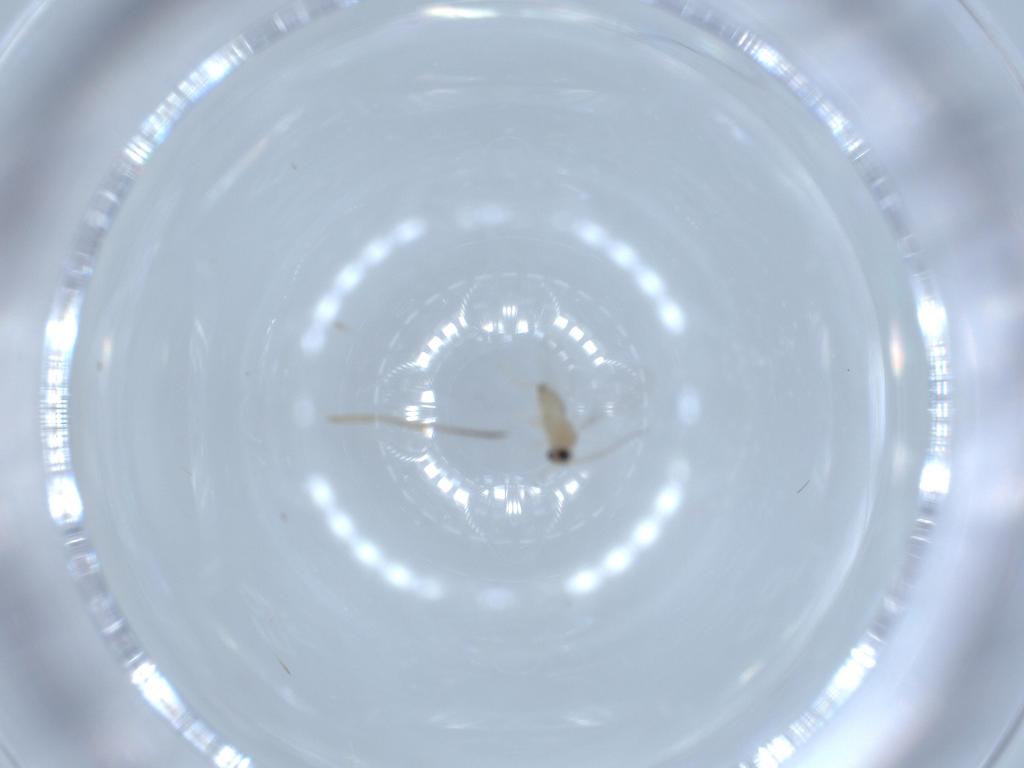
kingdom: Animalia
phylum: Arthropoda
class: Insecta
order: Diptera
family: Cecidomyiidae
